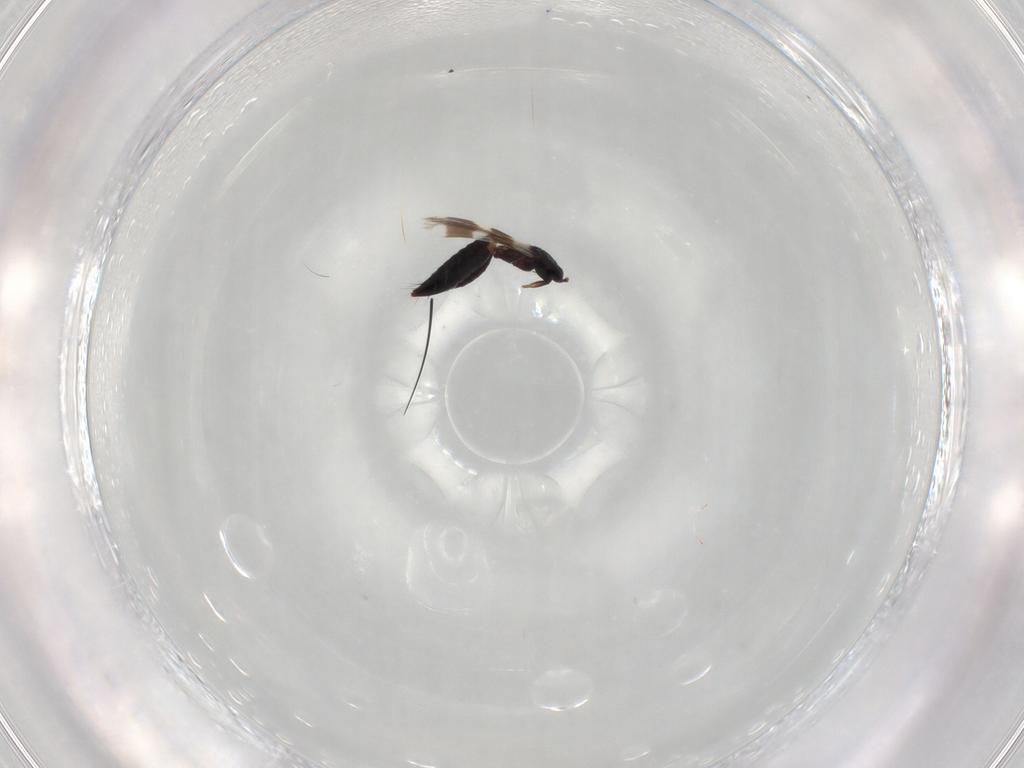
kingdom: Animalia
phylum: Arthropoda
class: Insecta
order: Thysanoptera
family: Aeolothripidae
